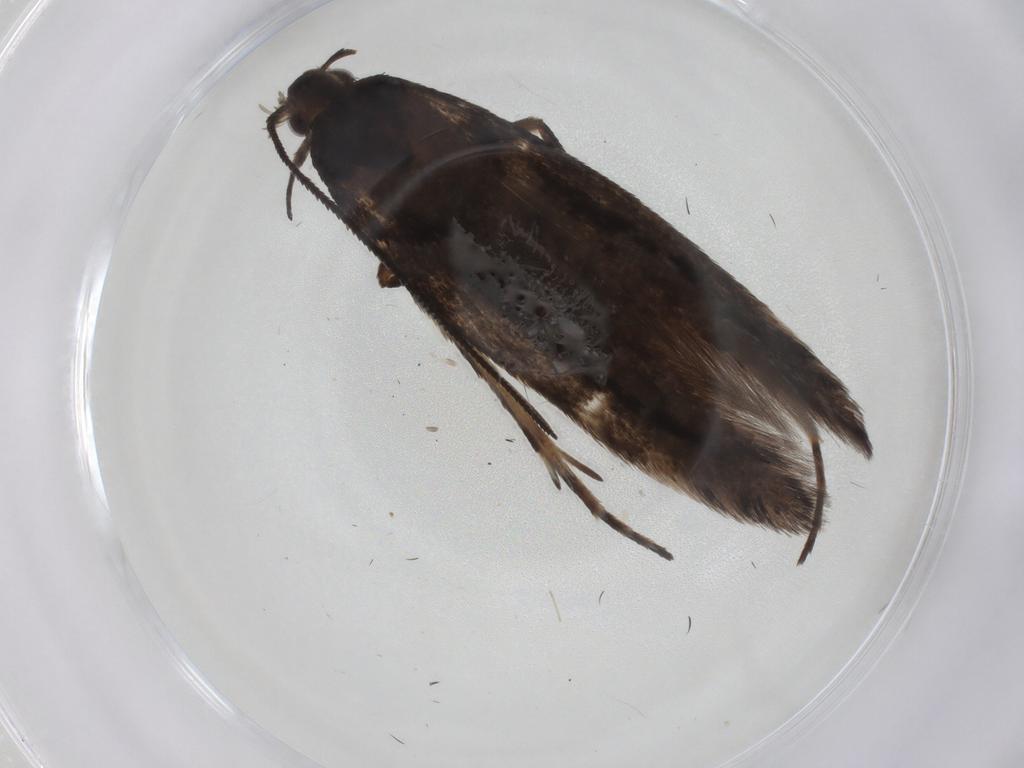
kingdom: Animalia
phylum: Arthropoda
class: Insecta
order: Lepidoptera
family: Gelechiidae
